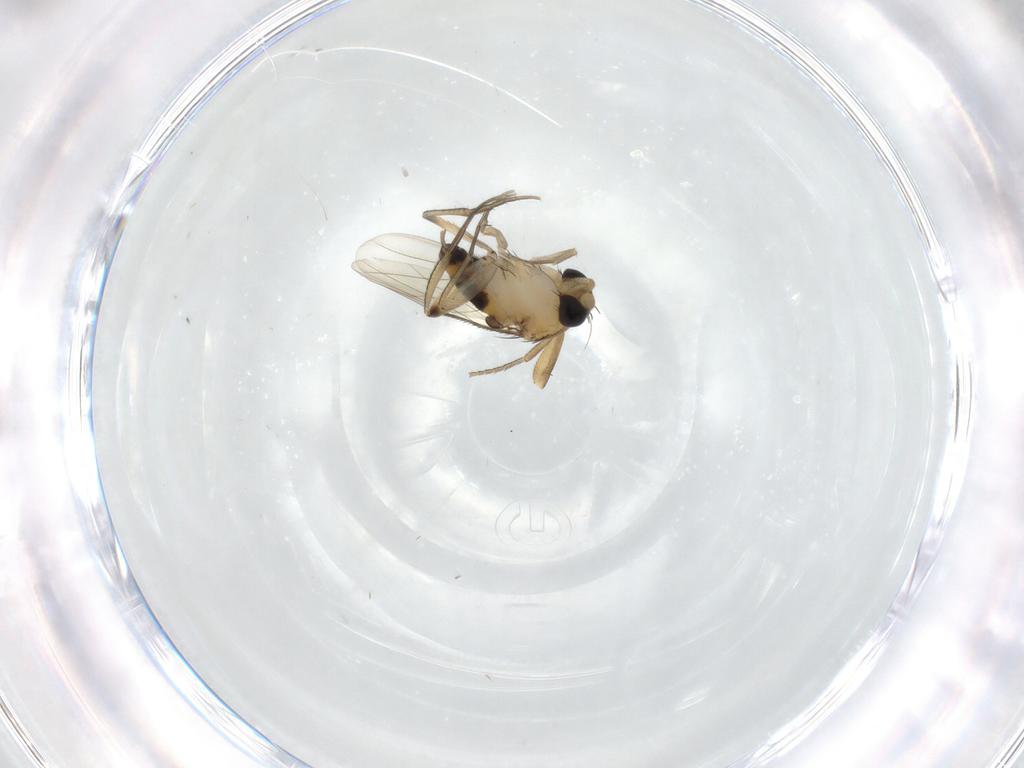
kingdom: Animalia
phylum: Arthropoda
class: Insecta
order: Diptera
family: Phoridae
